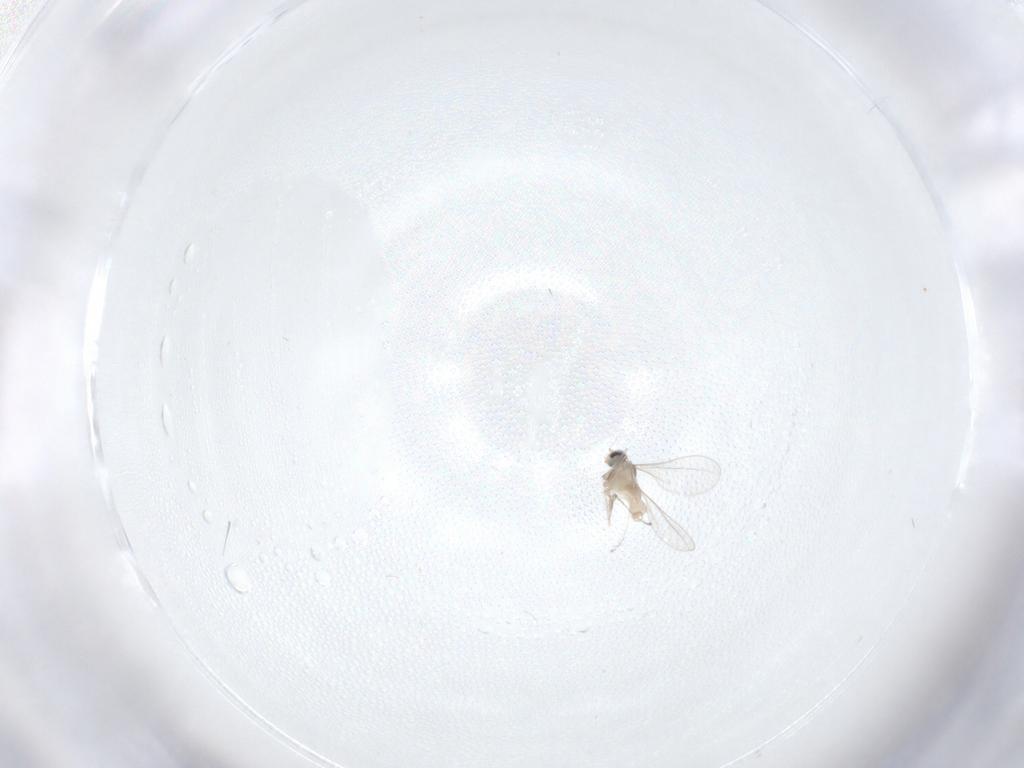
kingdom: Animalia
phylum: Arthropoda
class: Insecta
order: Diptera
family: Cecidomyiidae
